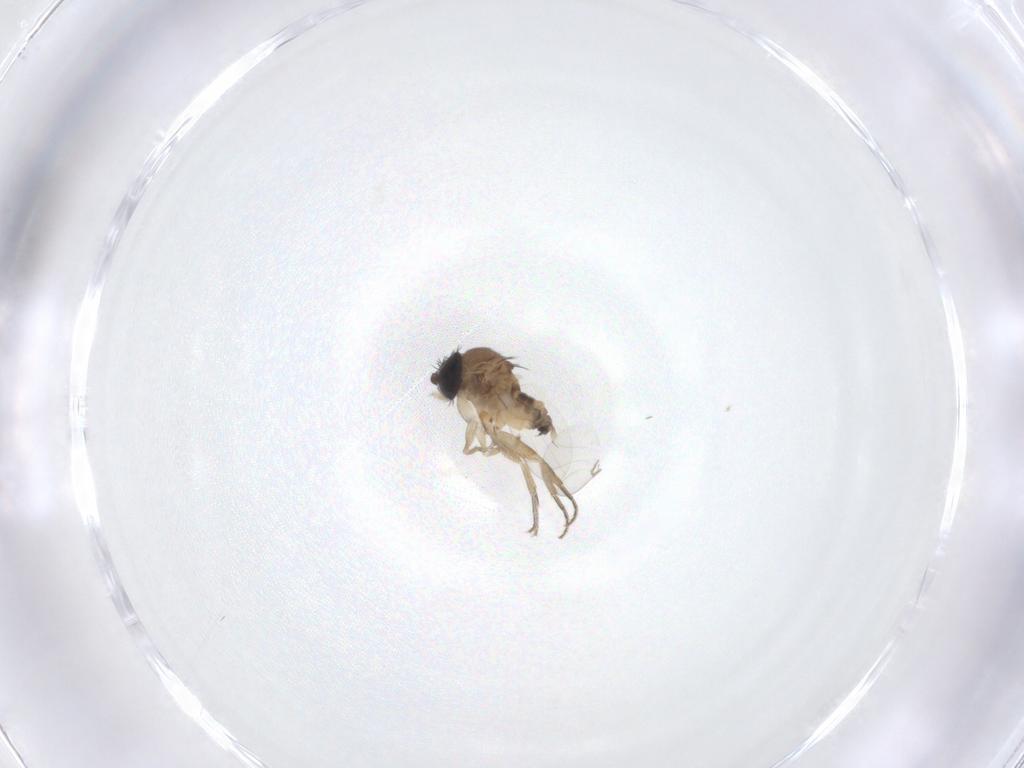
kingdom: Animalia
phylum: Arthropoda
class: Insecta
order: Diptera
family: Phoridae
